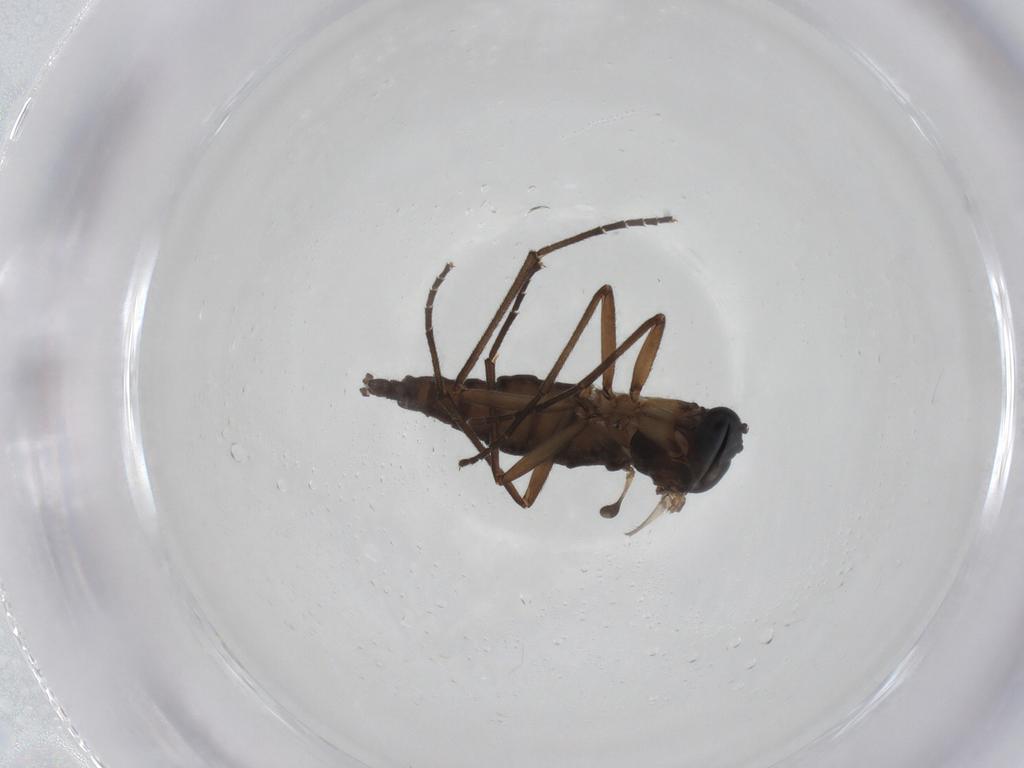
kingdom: Animalia
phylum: Arthropoda
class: Insecta
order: Diptera
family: Sciaridae
